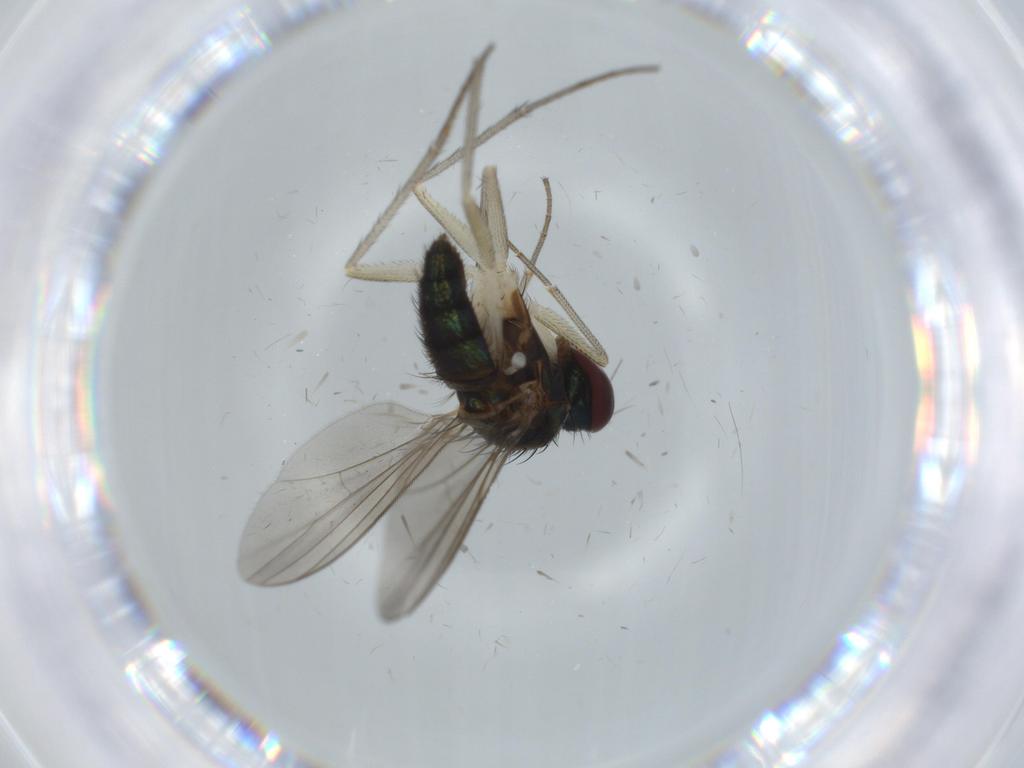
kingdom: Animalia
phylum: Arthropoda
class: Insecta
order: Diptera
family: Dolichopodidae
